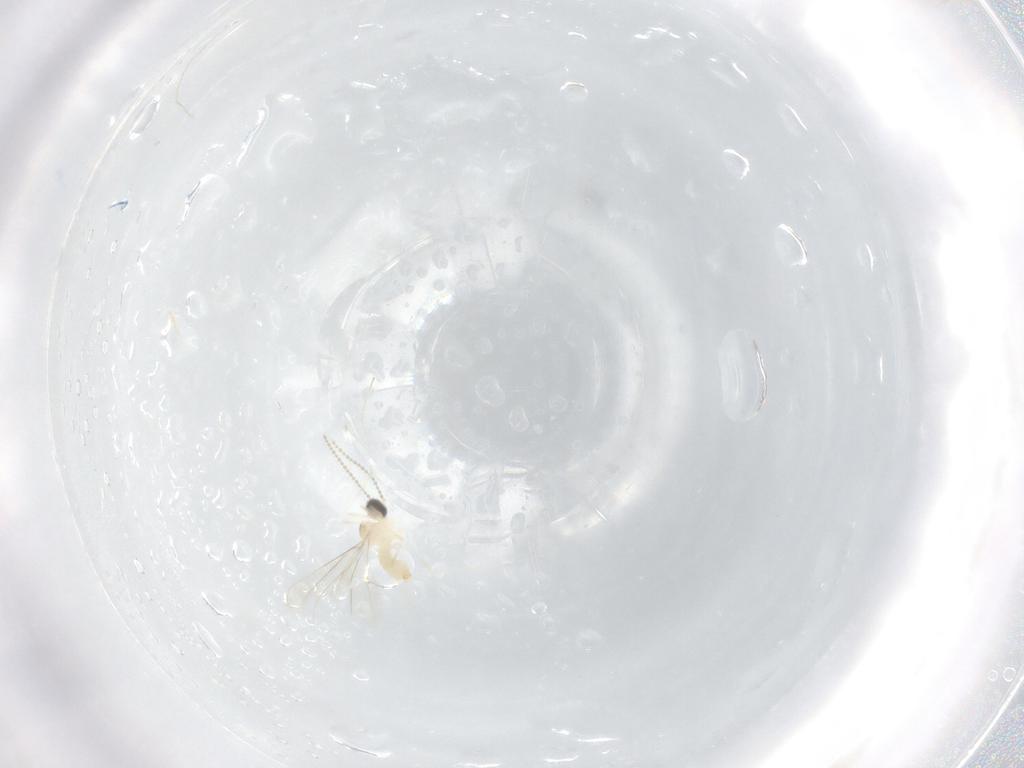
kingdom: Animalia
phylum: Arthropoda
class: Insecta
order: Diptera
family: Cecidomyiidae
